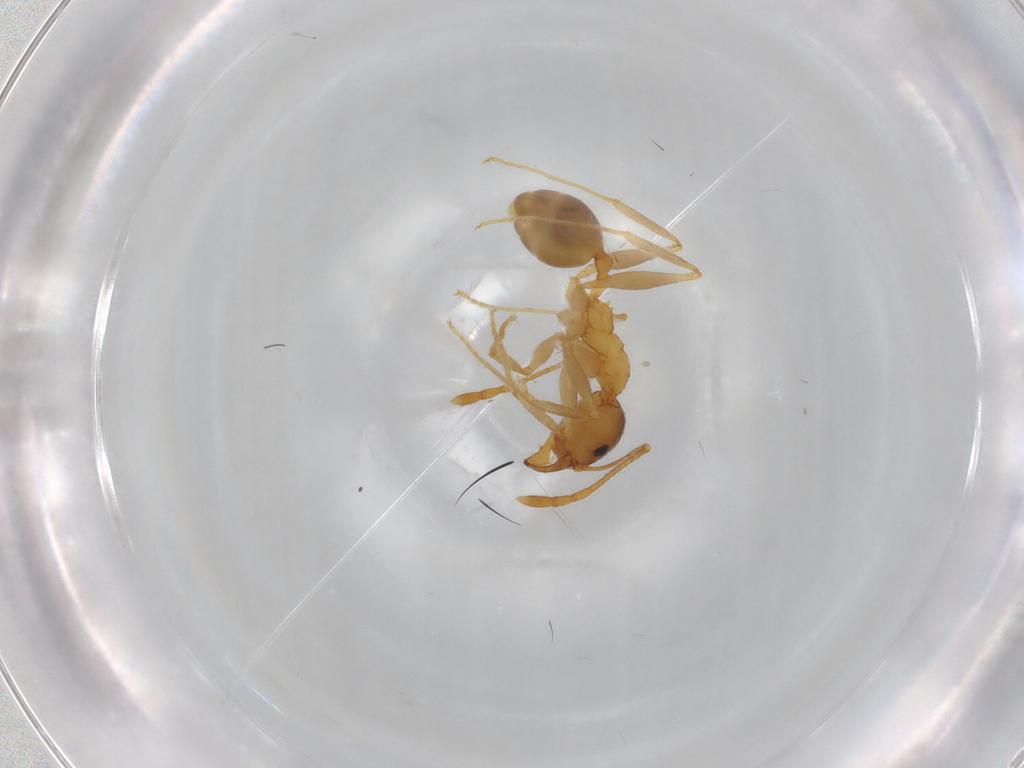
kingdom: Animalia
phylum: Arthropoda
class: Insecta
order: Hymenoptera
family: Formicidae
